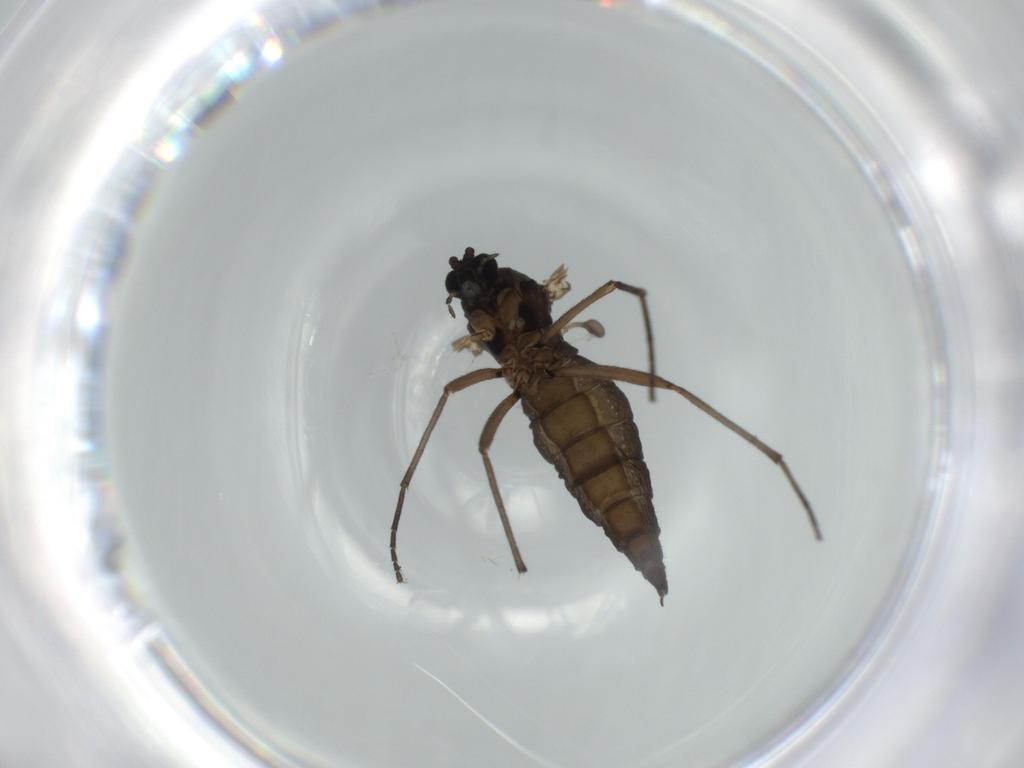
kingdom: Animalia
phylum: Arthropoda
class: Insecta
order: Diptera
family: Sciaridae
